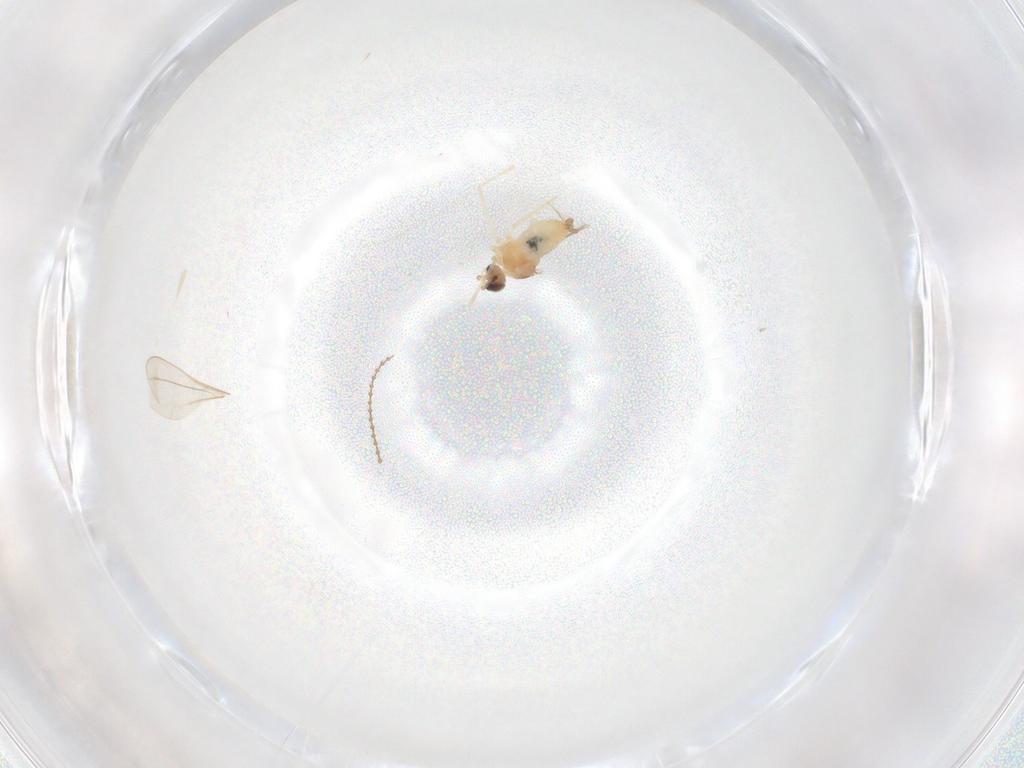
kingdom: Animalia
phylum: Arthropoda
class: Insecta
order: Diptera
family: Cecidomyiidae
